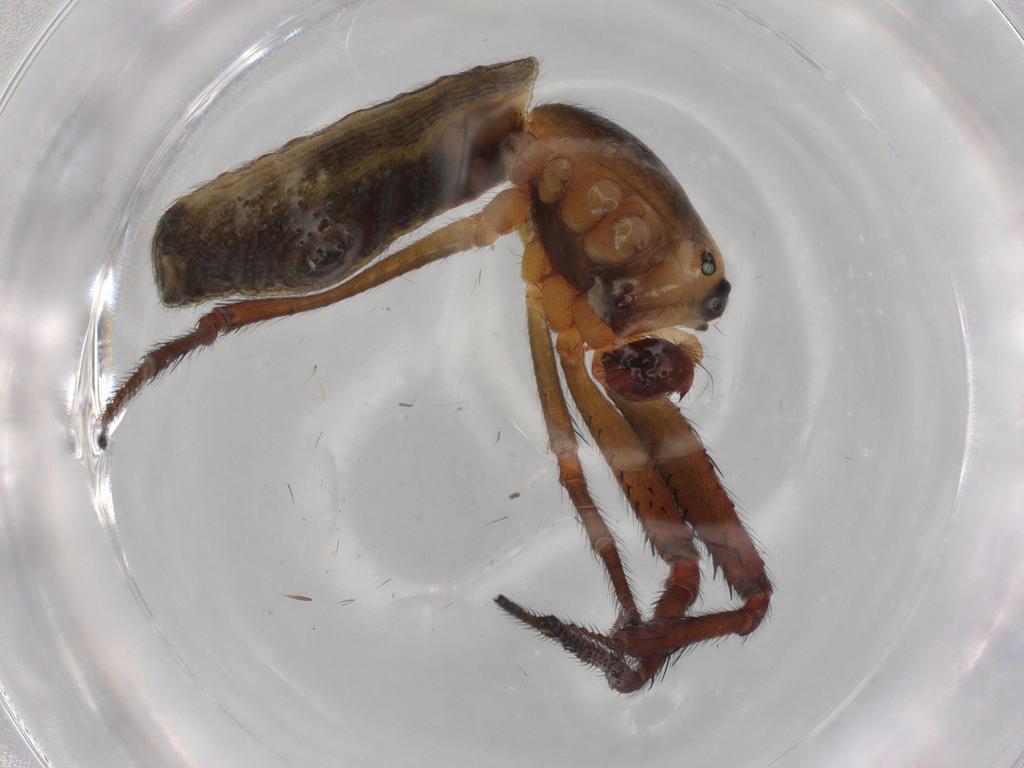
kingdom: Animalia
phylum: Arthropoda
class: Arachnida
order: Araneae
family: Araneidae
